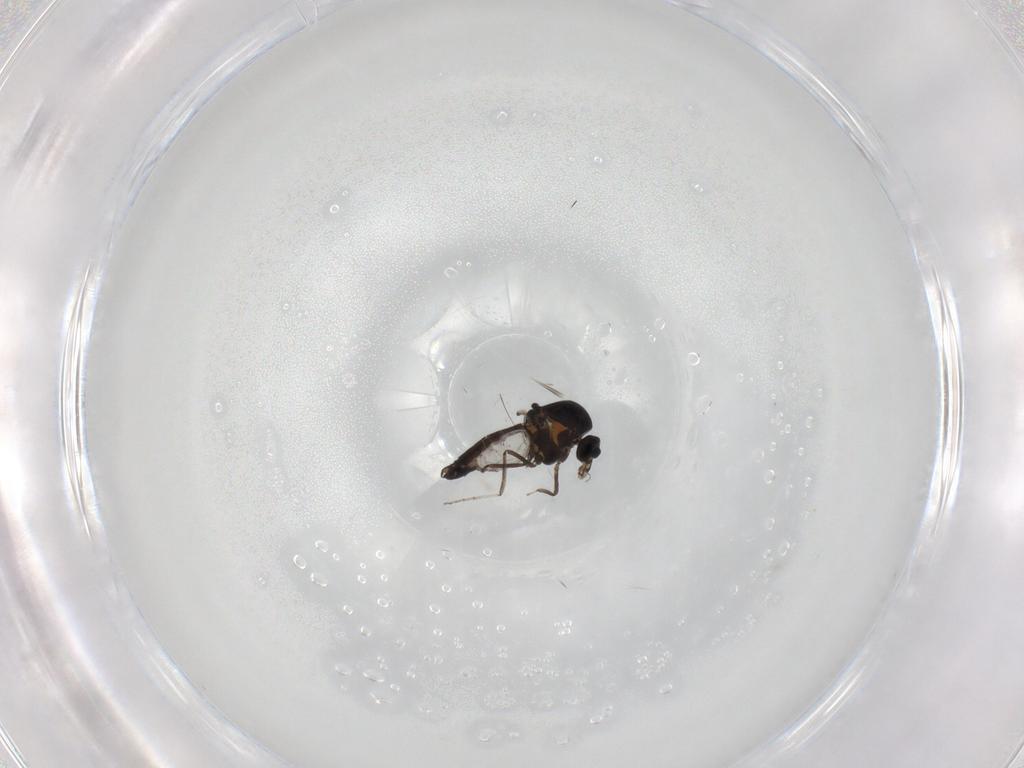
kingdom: Animalia
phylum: Arthropoda
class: Insecta
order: Diptera
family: Ceratopogonidae
